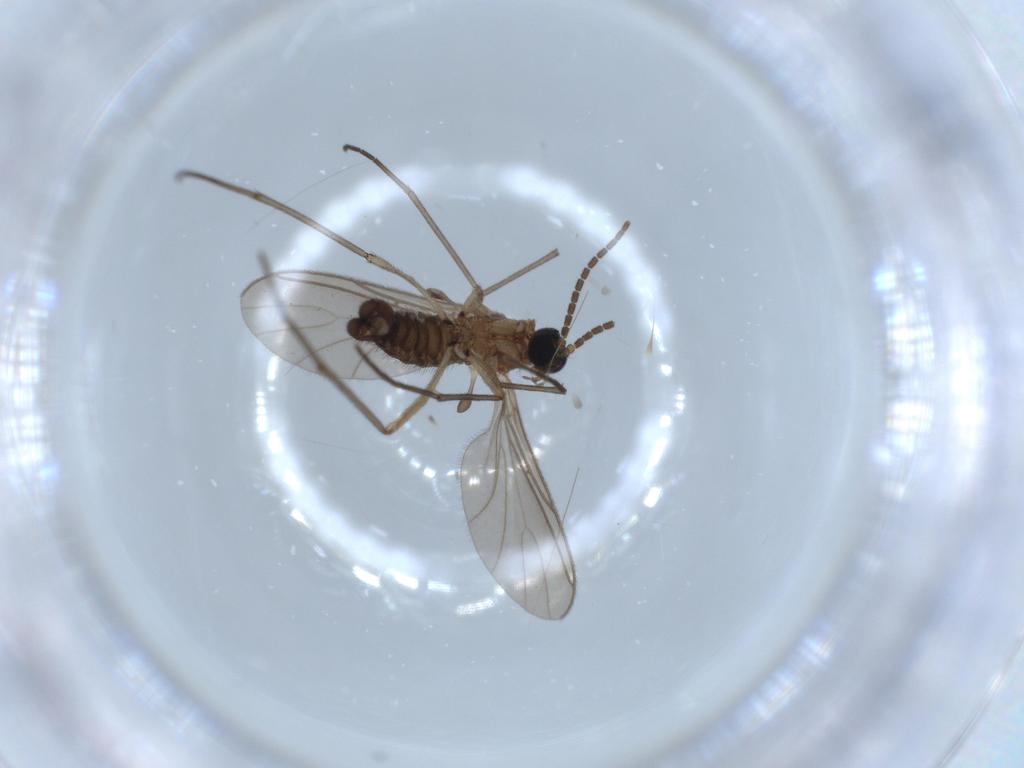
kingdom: Animalia
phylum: Arthropoda
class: Insecta
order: Diptera
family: Sciaridae
